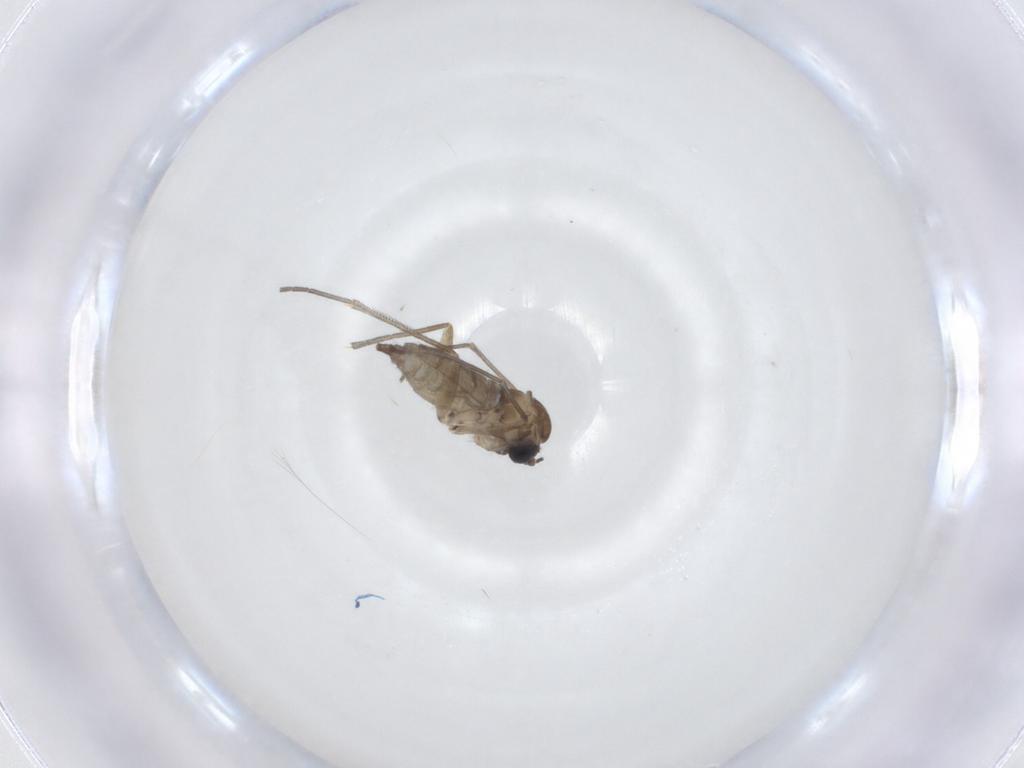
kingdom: Animalia
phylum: Arthropoda
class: Insecta
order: Diptera
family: Sciaridae
